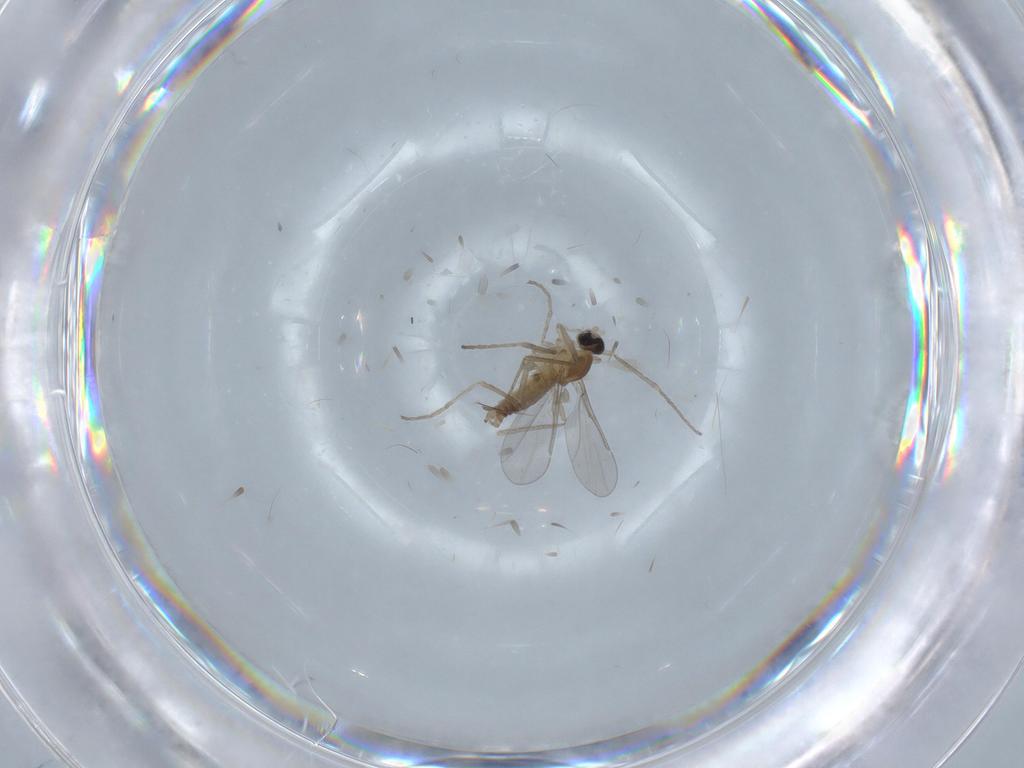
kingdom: Animalia
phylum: Arthropoda
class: Insecta
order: Diptera
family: Cecidomyiidae
